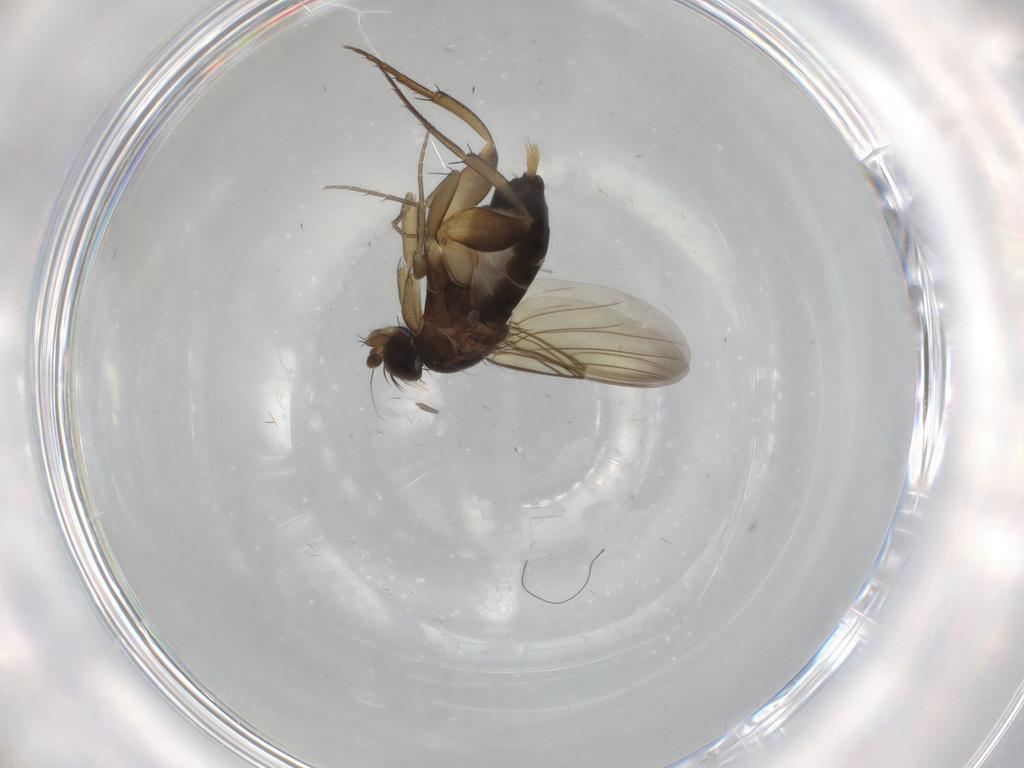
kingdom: Animalia
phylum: Arthropoda
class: Insecta
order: Diptera
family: Phoridae
